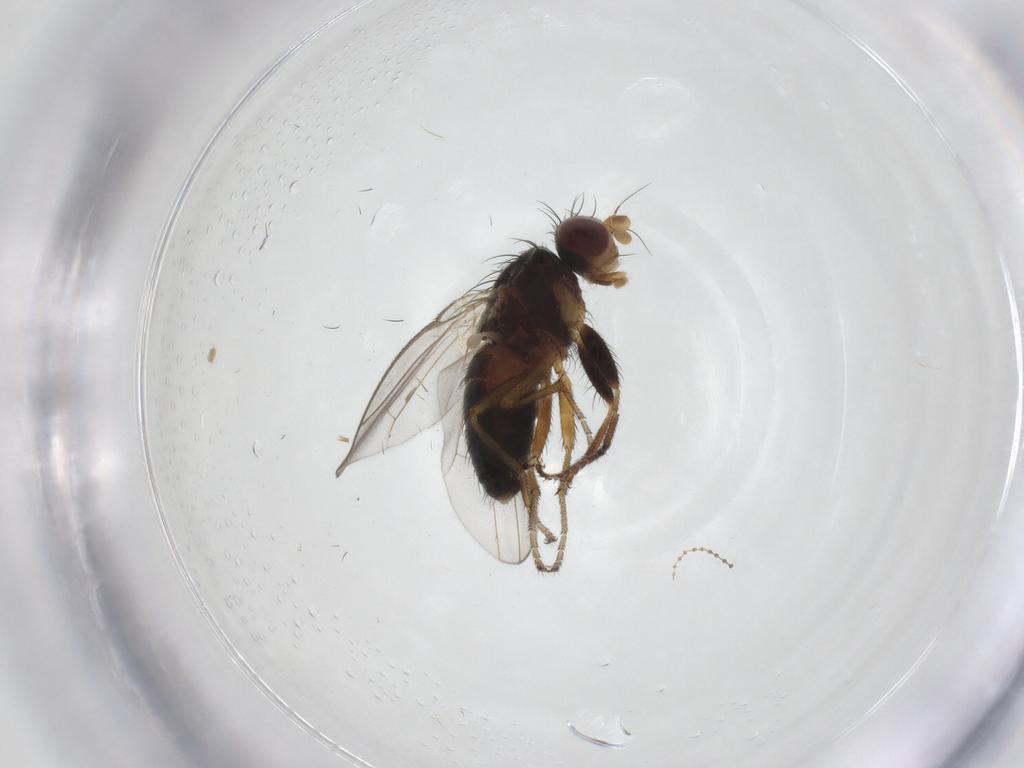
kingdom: Animalia
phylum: Arthropoda
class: Insecta
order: Diptera
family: Heleomyzidae
